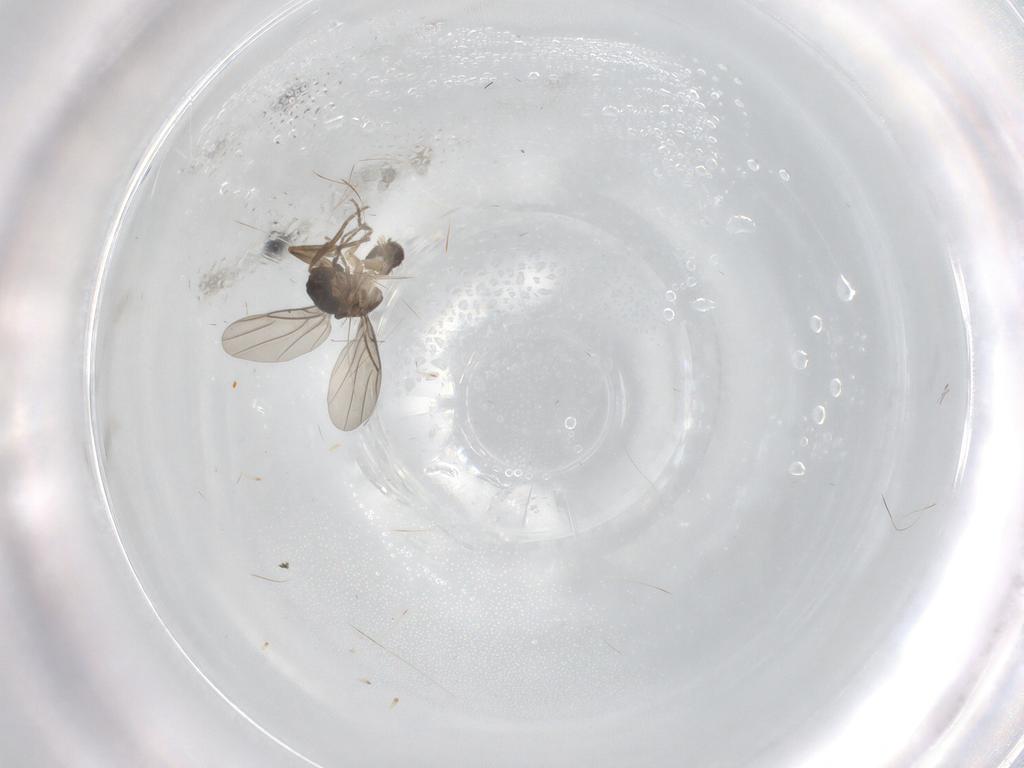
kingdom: Animalia
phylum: Arthropoda
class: Insecta
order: Diptera
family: Phoridae
